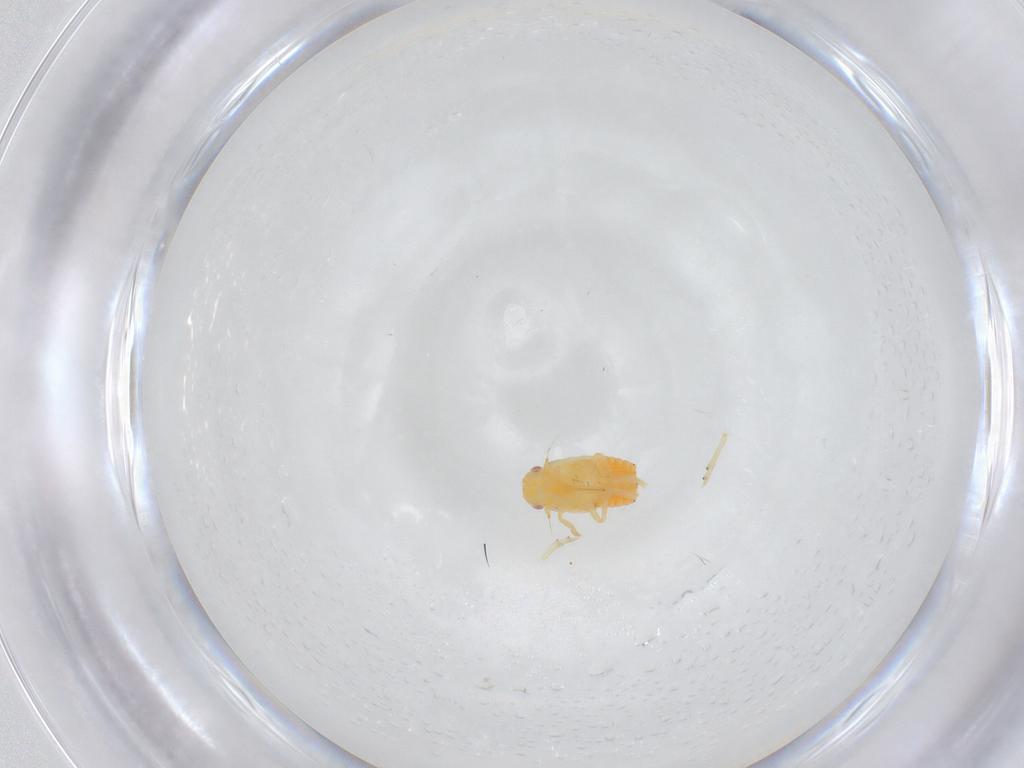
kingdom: Animalia
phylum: Arthropoda
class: Insecta
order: Hemiptera
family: Flatidae
